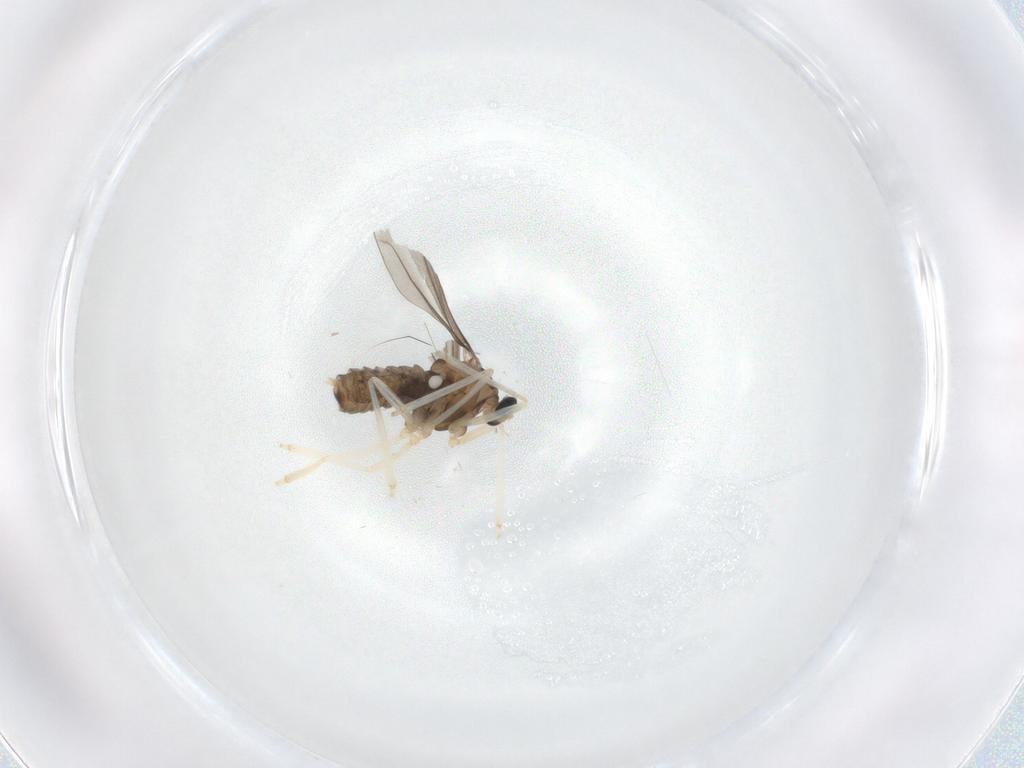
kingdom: Animalia
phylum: Arthropoda
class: Insecta
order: Diptera
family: Cecidomyiidae
